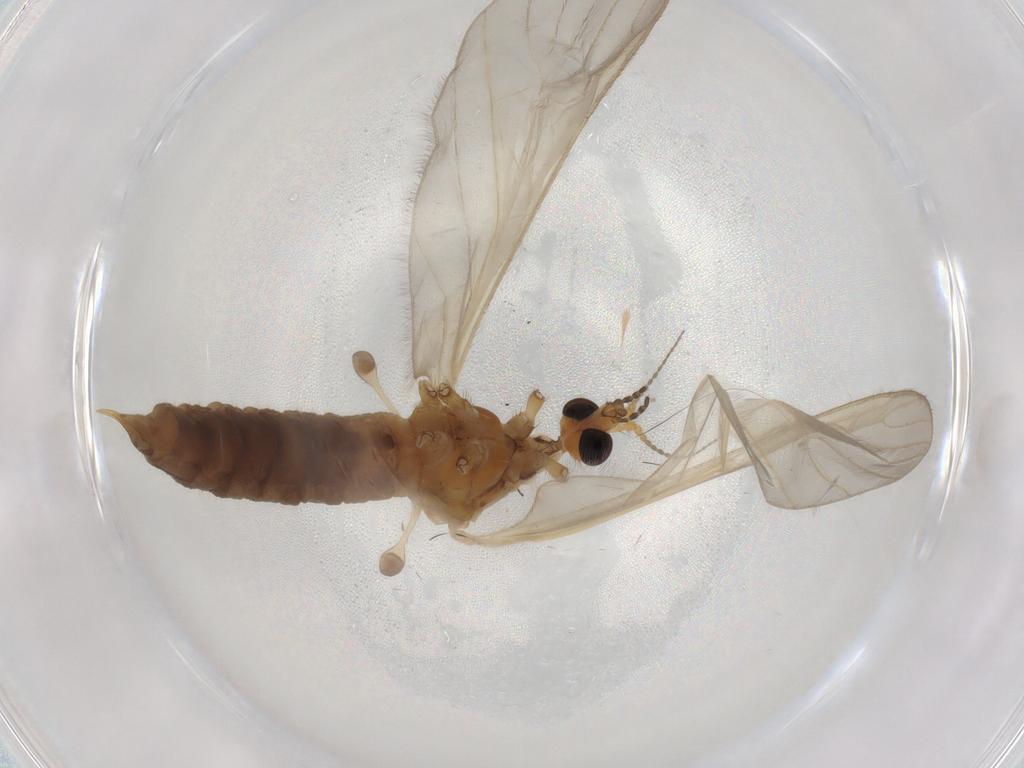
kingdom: Animalia
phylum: Arthropoda
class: Insecta
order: Diptera
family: Limoniidae
